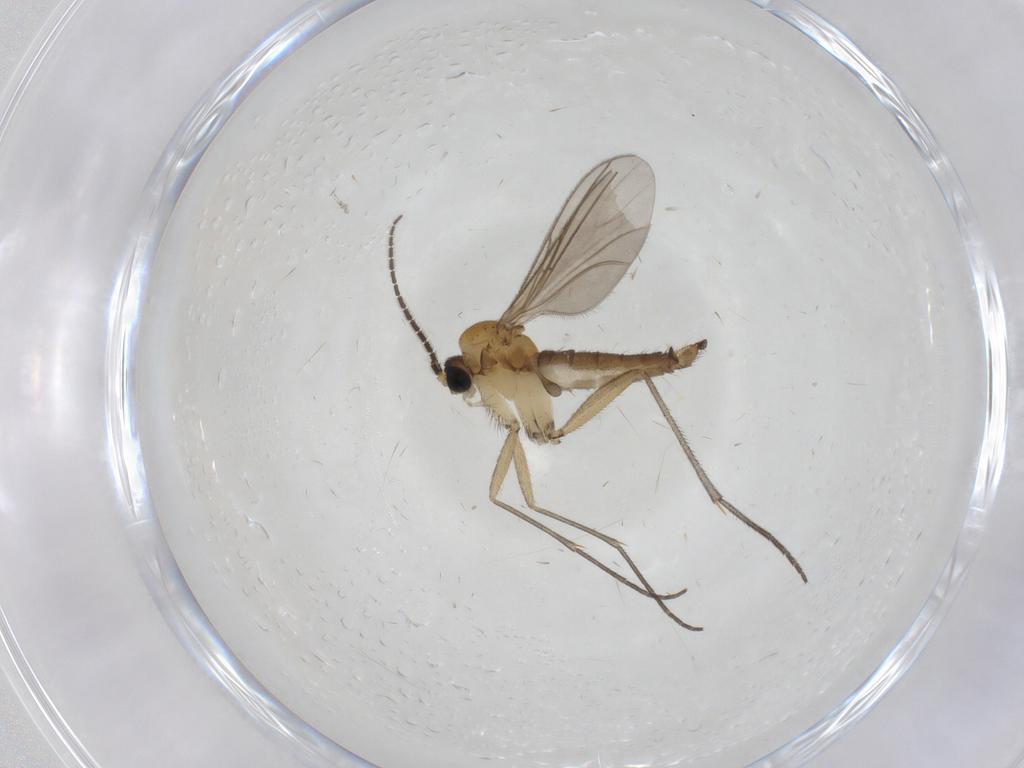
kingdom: Animalia
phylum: Arthropoda
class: Insecta
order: Diptera
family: Sciaridae
